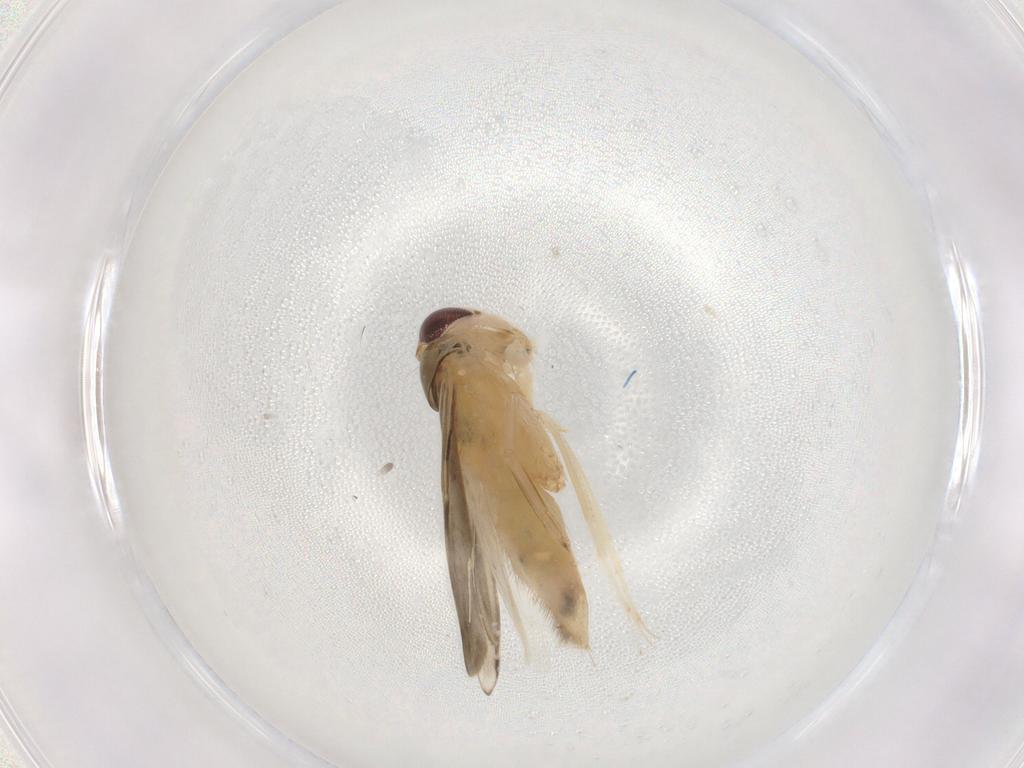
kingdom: Animalia
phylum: Arthropoda
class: Insecta
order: Hemiptera
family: Corixidae
